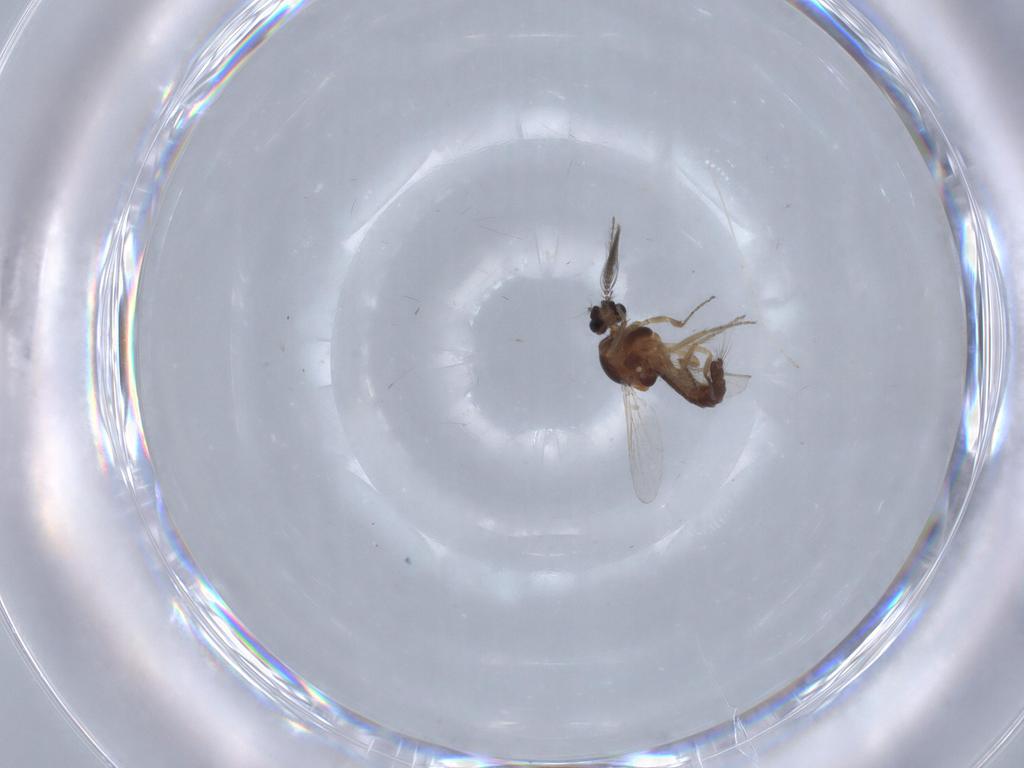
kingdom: Animalia
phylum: Arthropoda
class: Insecta
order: Diptera
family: Ceratopogonidae
